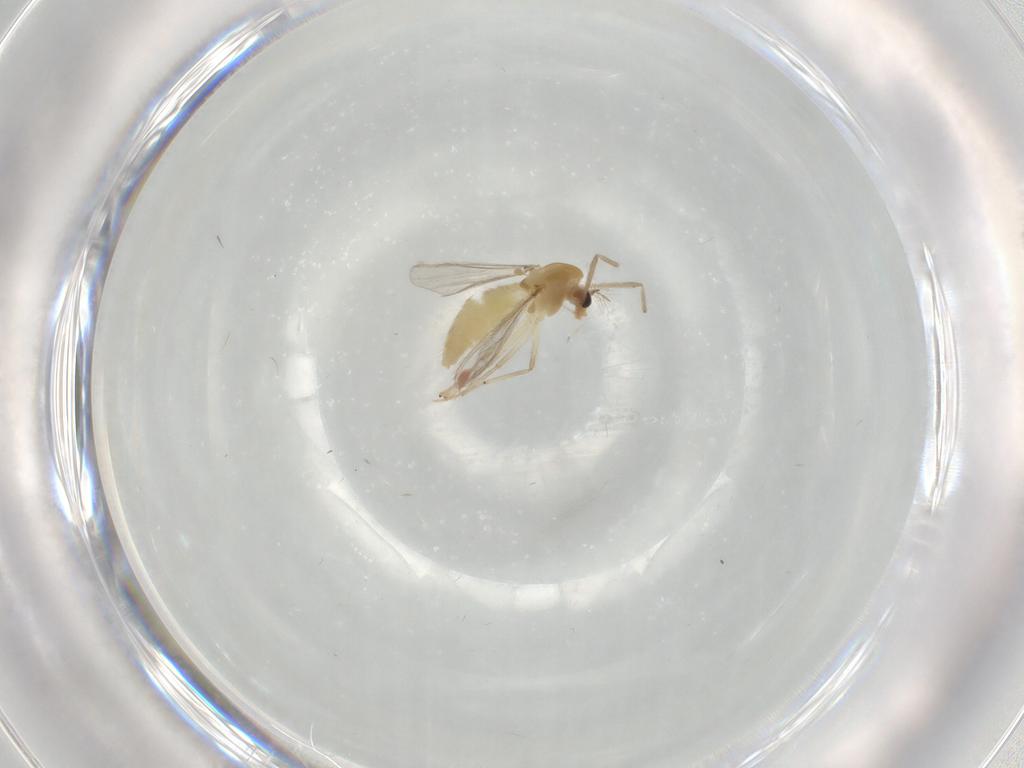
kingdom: Animalia
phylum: Arthropoda
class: Insecta
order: Diptera
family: Chironomidae
